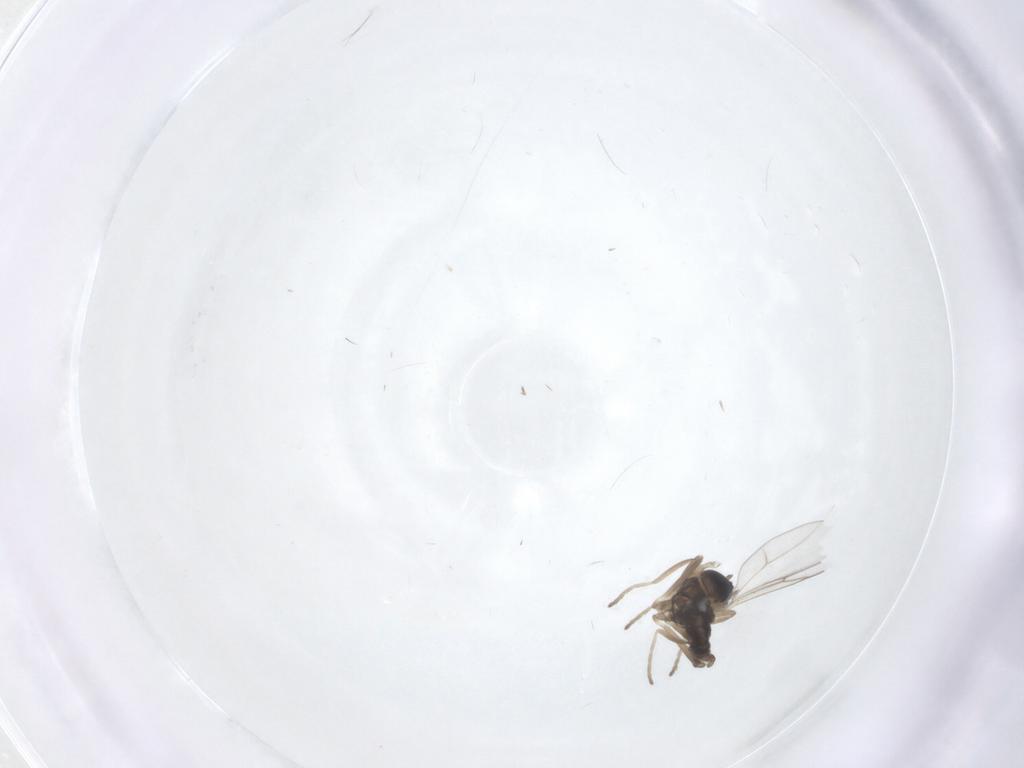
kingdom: Animalia
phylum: Arthropoda
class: Insecta
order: Diptera
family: Cecidomyiidae
